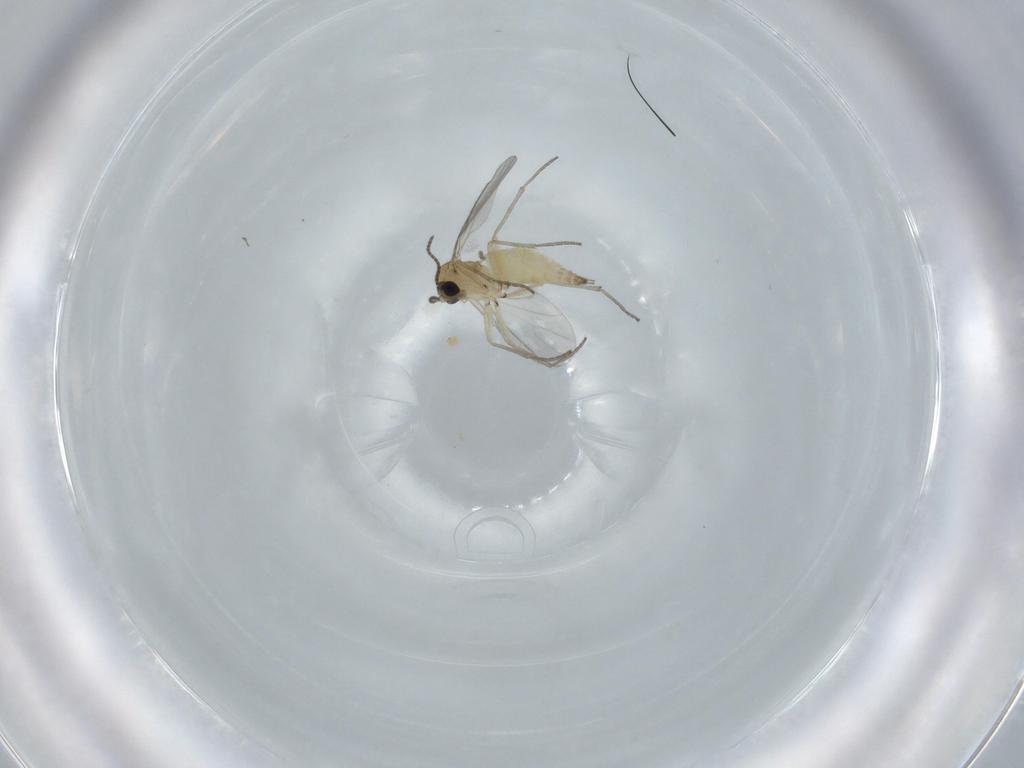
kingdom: Animalia
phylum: Arthropoda
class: Insecta
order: Diptera
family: Sciaridae
